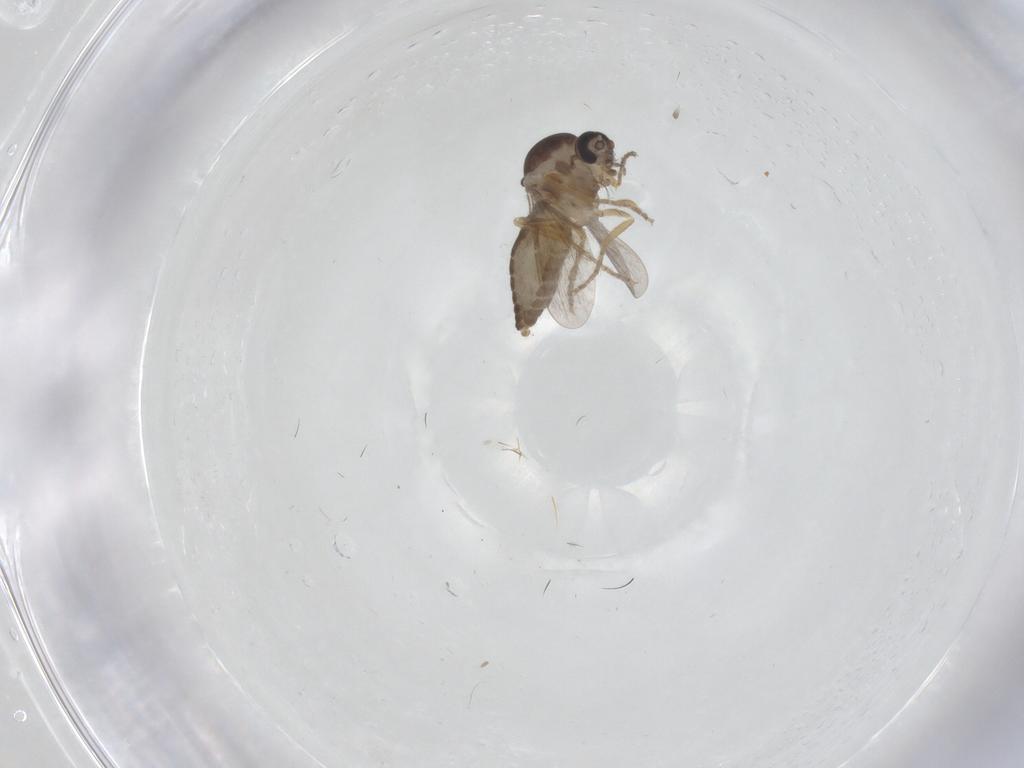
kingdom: Animalia
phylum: Arthropoda
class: Insecta
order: Diptera
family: Ceratopogonidae
